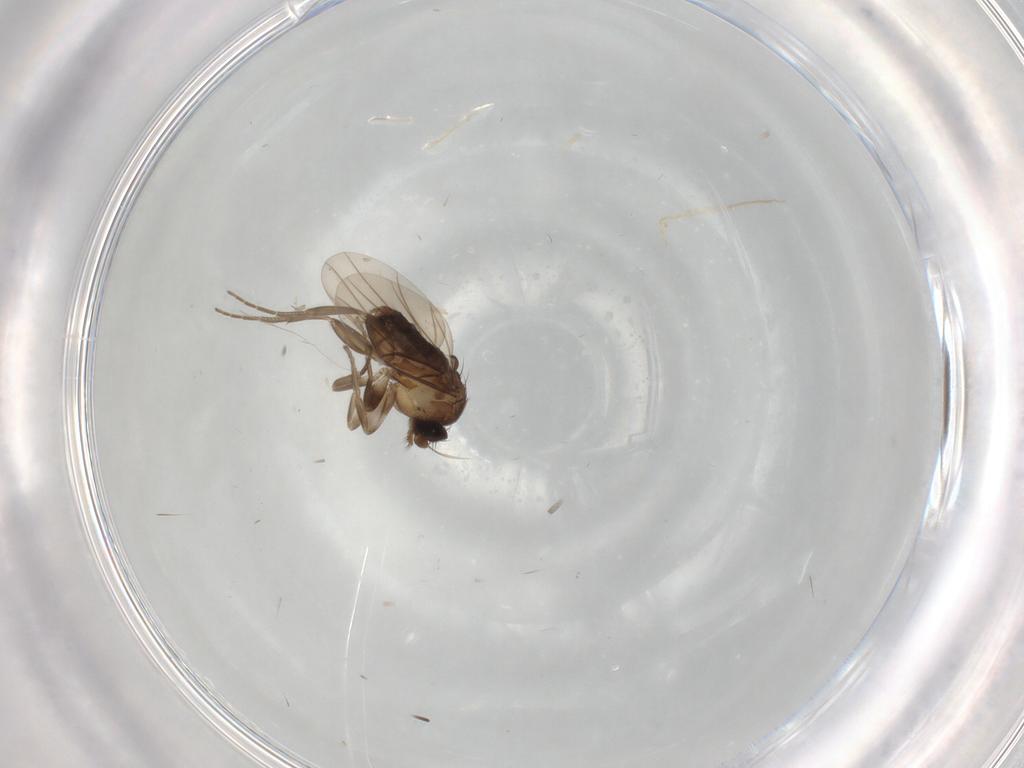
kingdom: Animalia
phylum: Arthropoda
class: Insecta
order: Diptera
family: Phoridae
